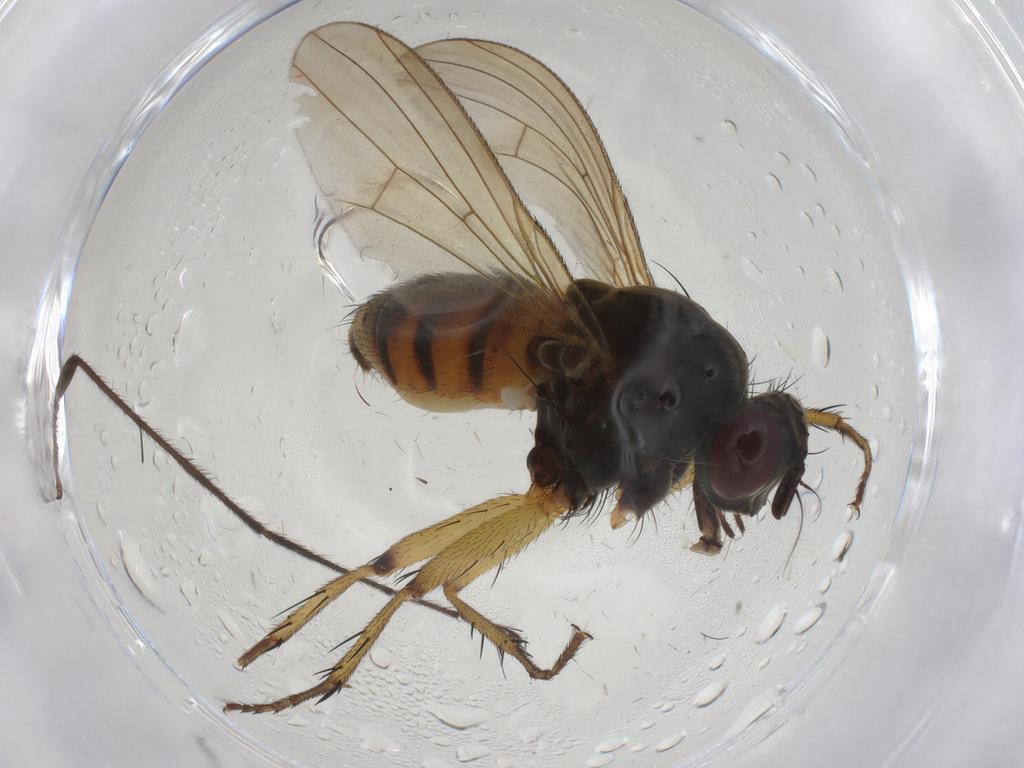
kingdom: Animalia
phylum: Arthropoda
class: Insecta
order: Diptera
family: Muscidae
